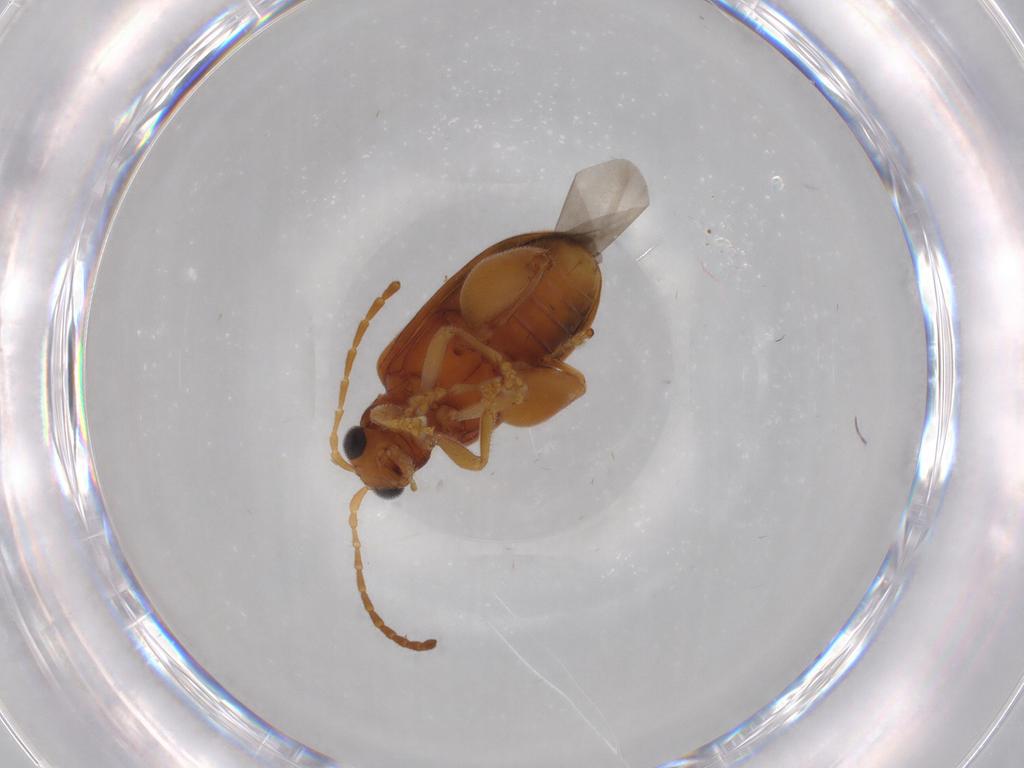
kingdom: Animalia
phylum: Arthropoda
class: Insecta
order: Coleoptera
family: Chrysomelidae
